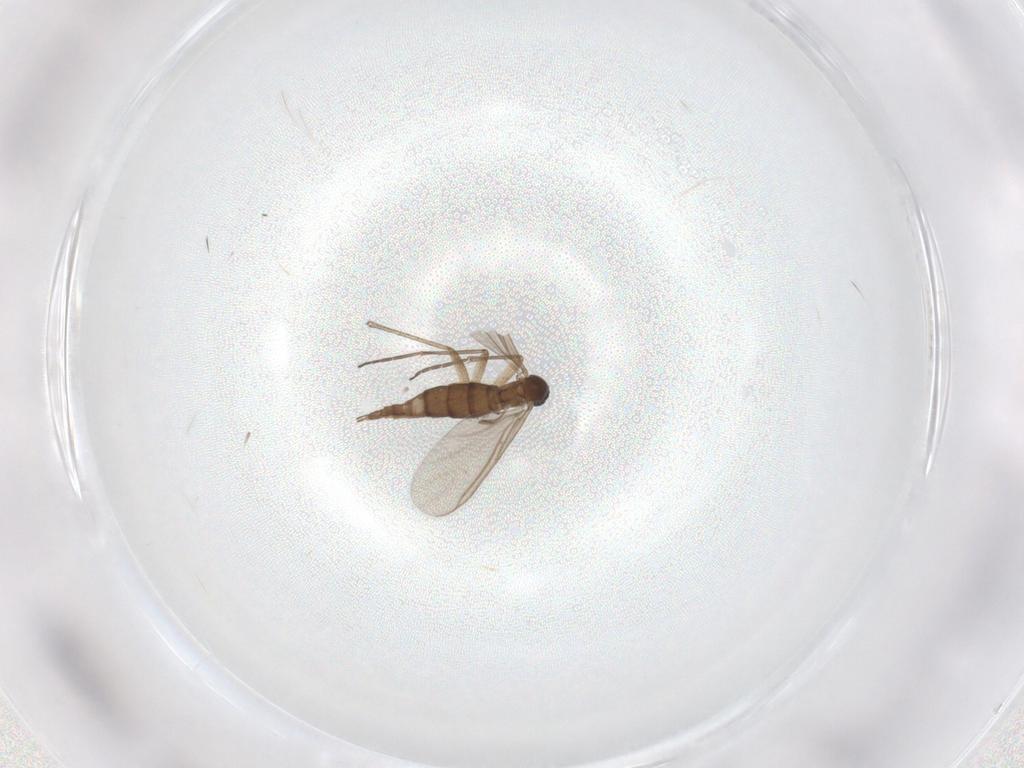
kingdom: Animalia
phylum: Arthropoda
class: Insecta
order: Diptera
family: Sciaridae
